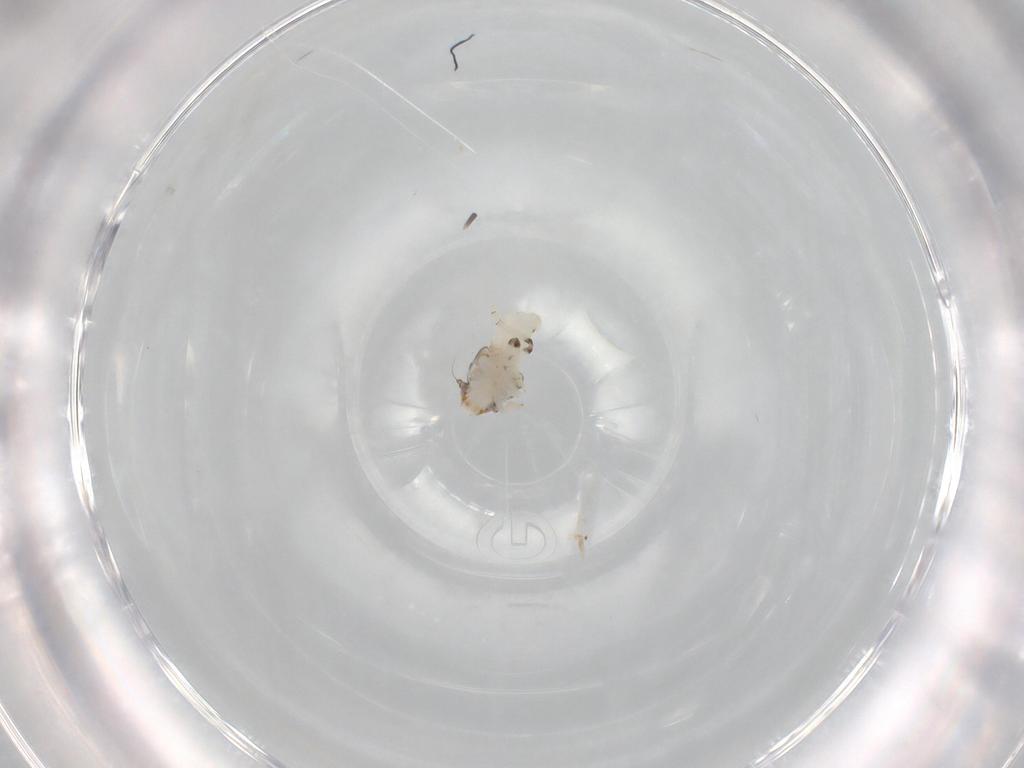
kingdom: Animalia
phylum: Arthropoda
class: Insecta
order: Hemiptera
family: Nogodinidae
